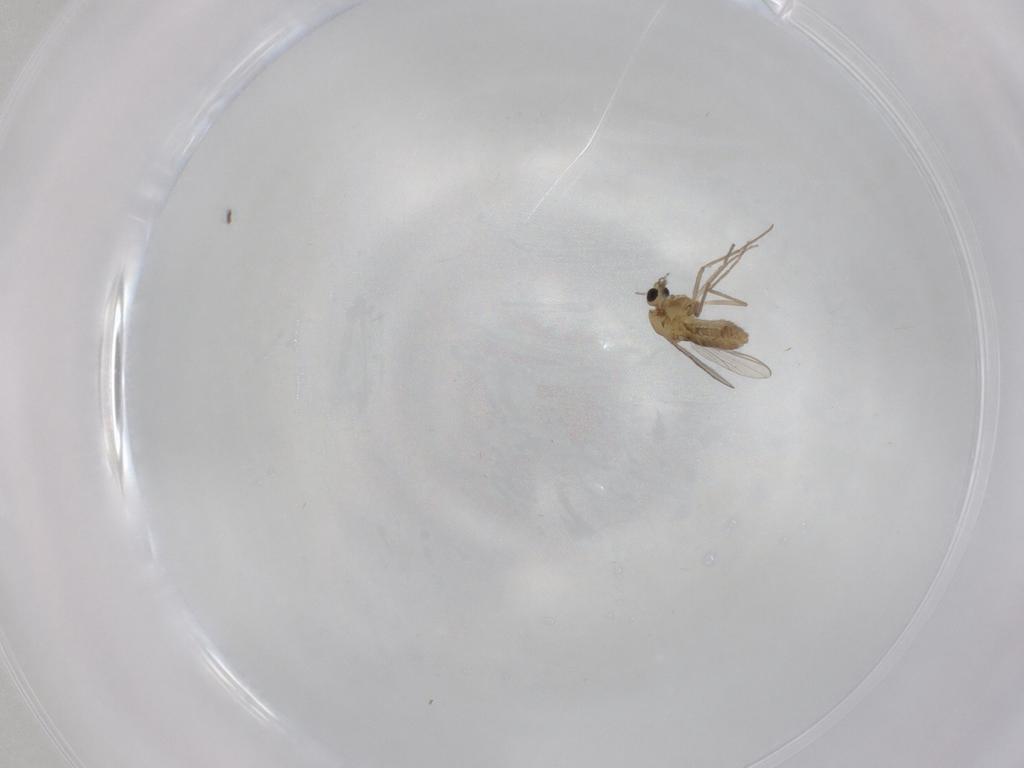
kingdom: Animalia
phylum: Arthropoda
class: Insecta
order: Diptera
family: Chironomidae
